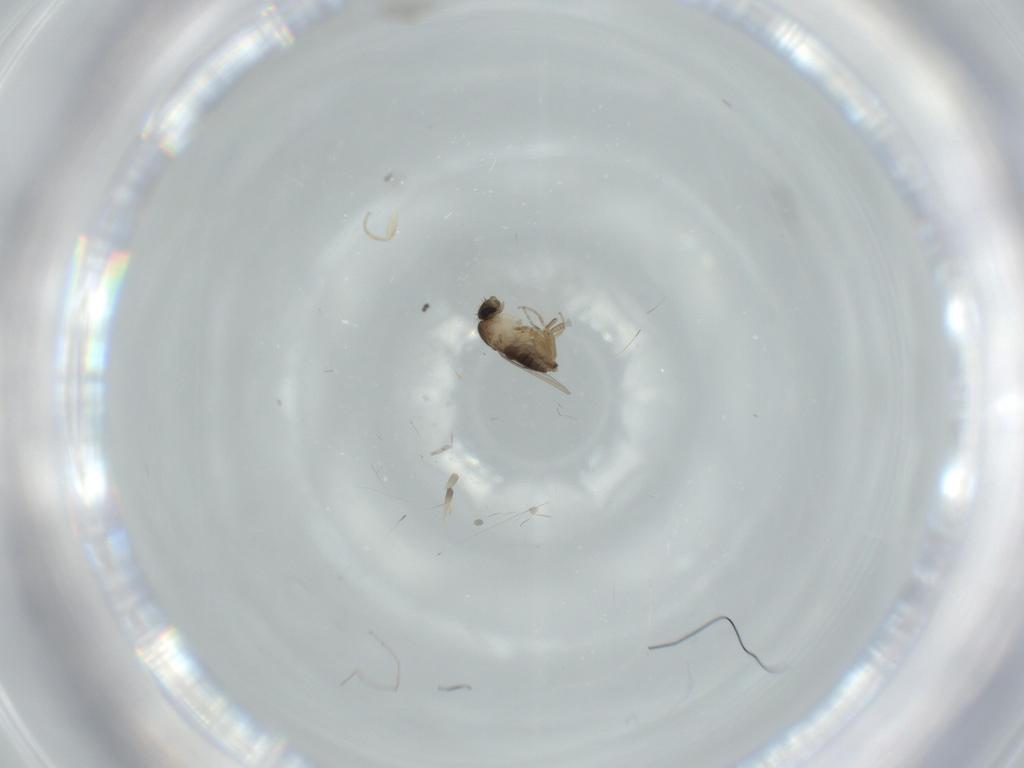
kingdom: Animalia
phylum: Arthropoda
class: Insecta
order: Diptera
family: Phoridae
